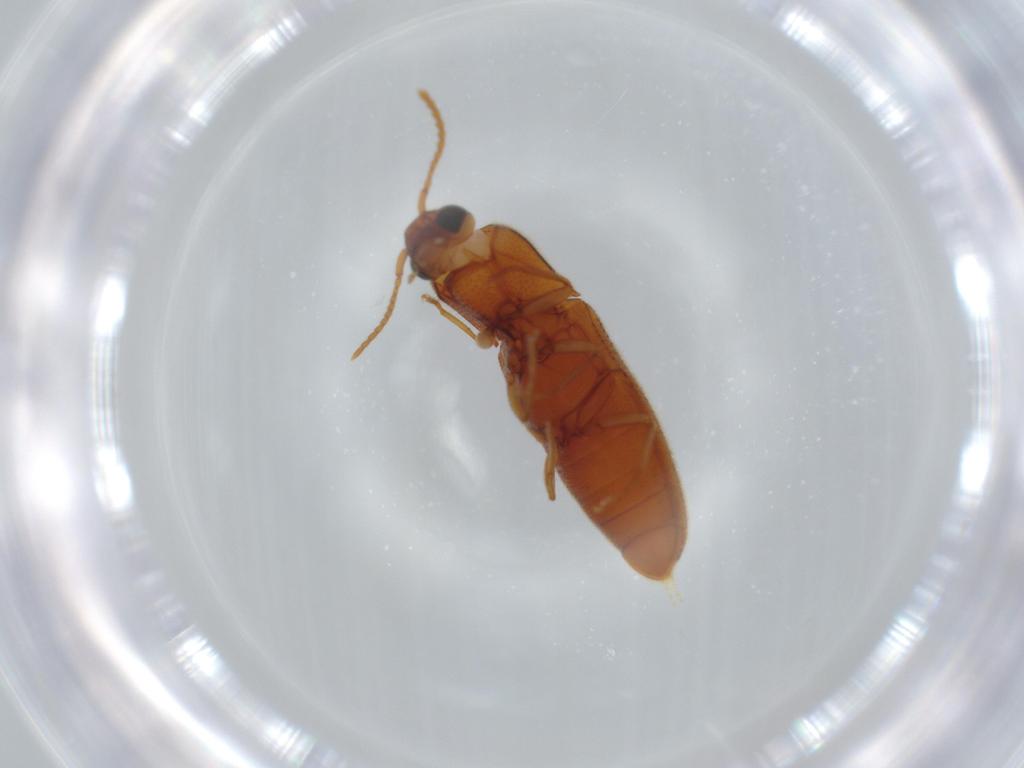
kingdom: Animalia
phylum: Arthropoda
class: Insecta
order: Coleoptera
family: Elateridae
